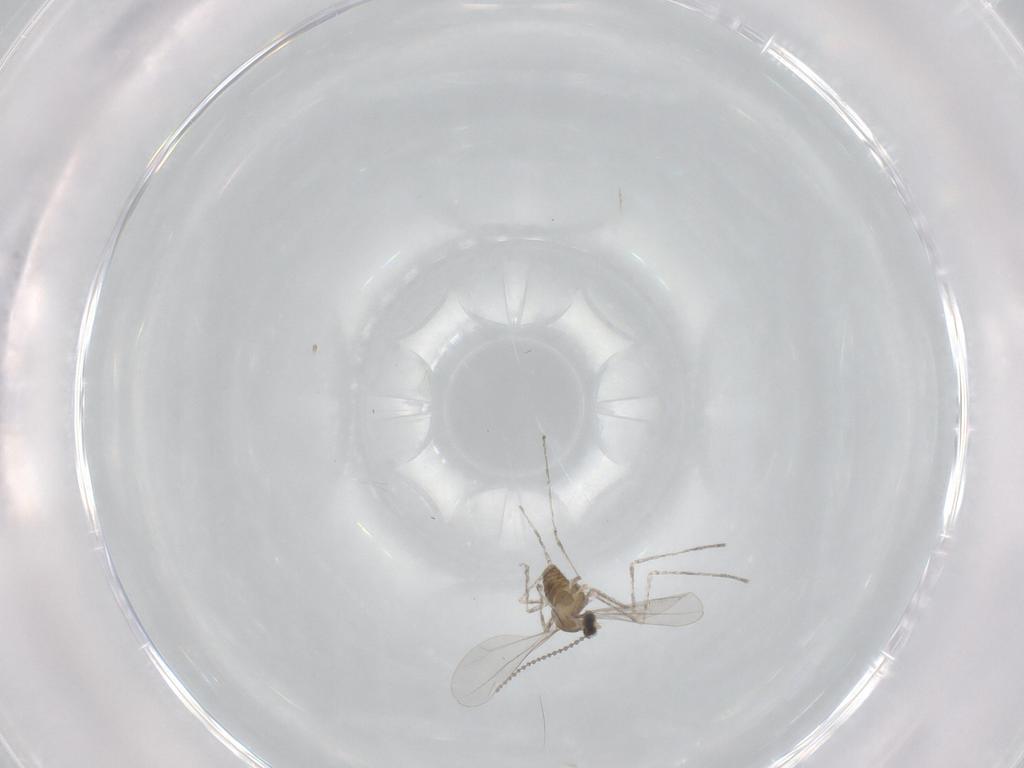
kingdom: Animalia
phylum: Arthropoda
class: Insecta
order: Diptera
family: Cecidomyiidae
